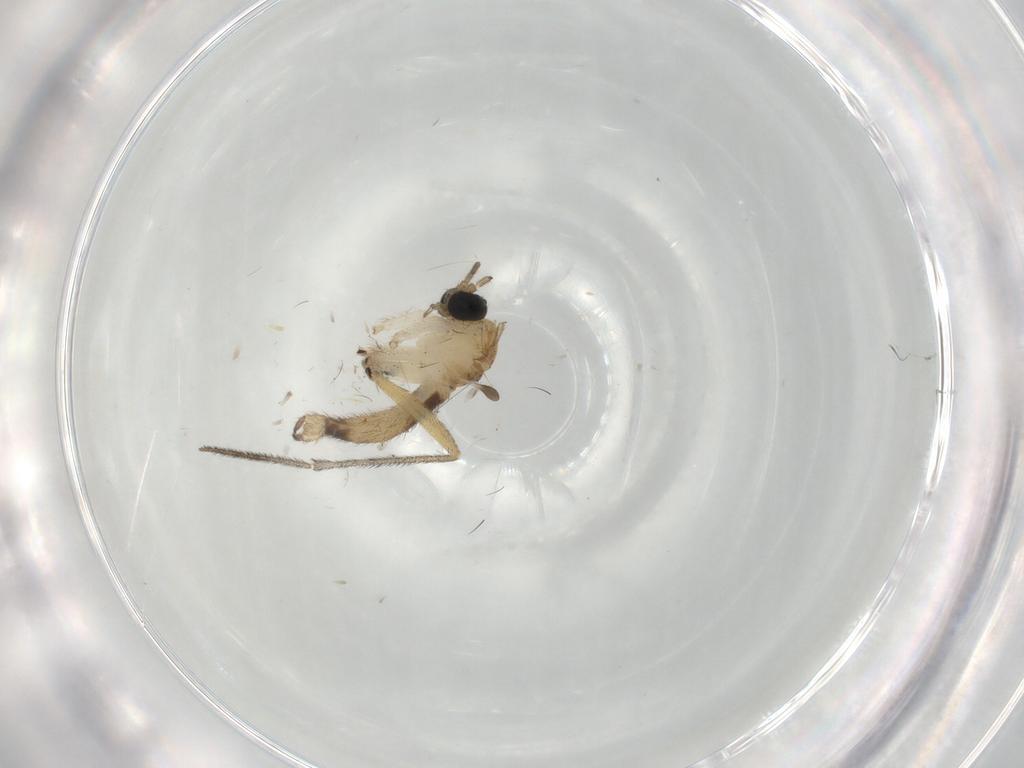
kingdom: Animalia
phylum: Arthropoda
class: Insecta
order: Diptera
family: Sciaridae
